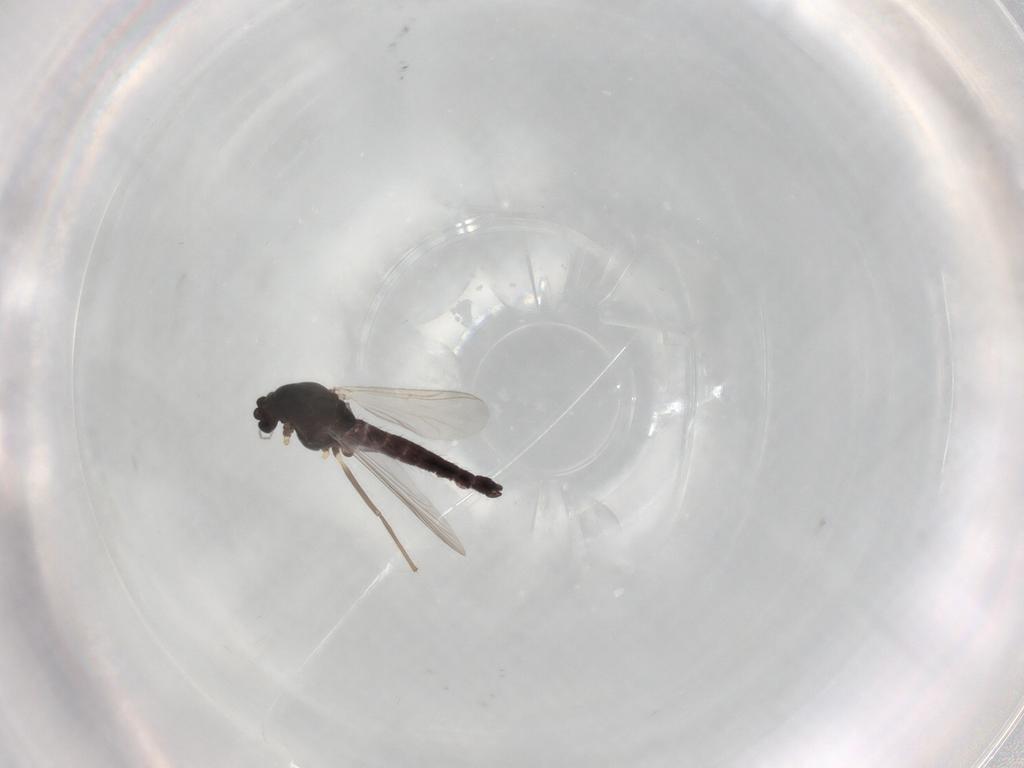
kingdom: Animalia
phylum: Arthropoda
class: Insecta
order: Diptera
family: Chironomidae
